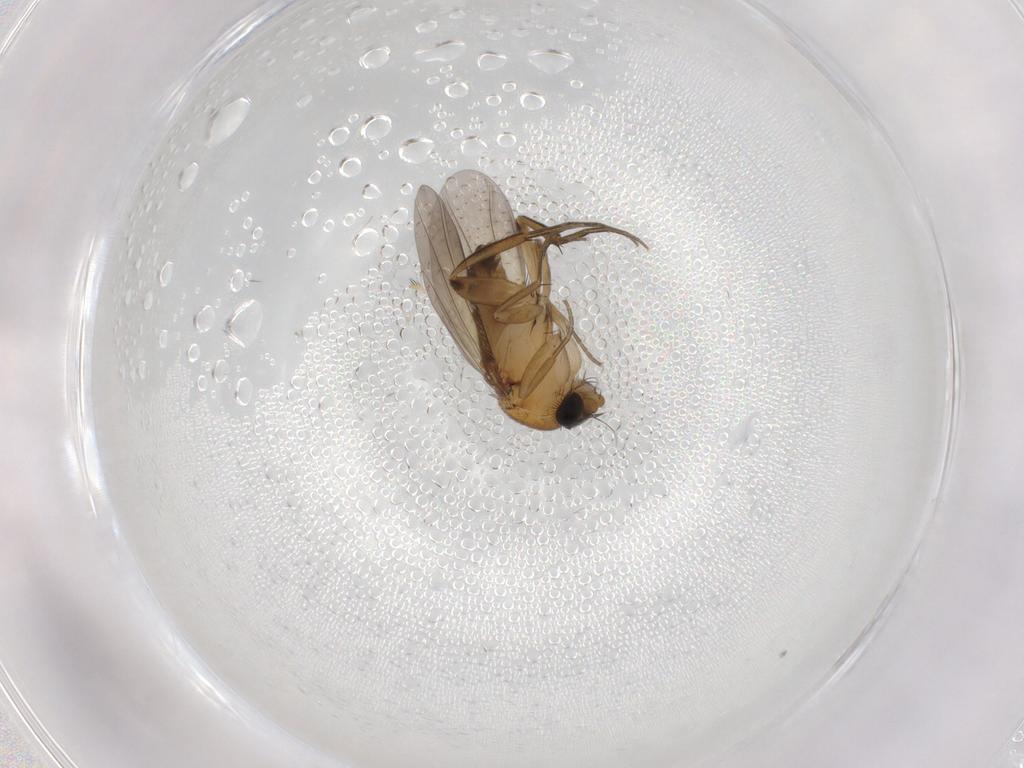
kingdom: Animalia
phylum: Arthropoda
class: Insecta
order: Diptera
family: Phoridae
